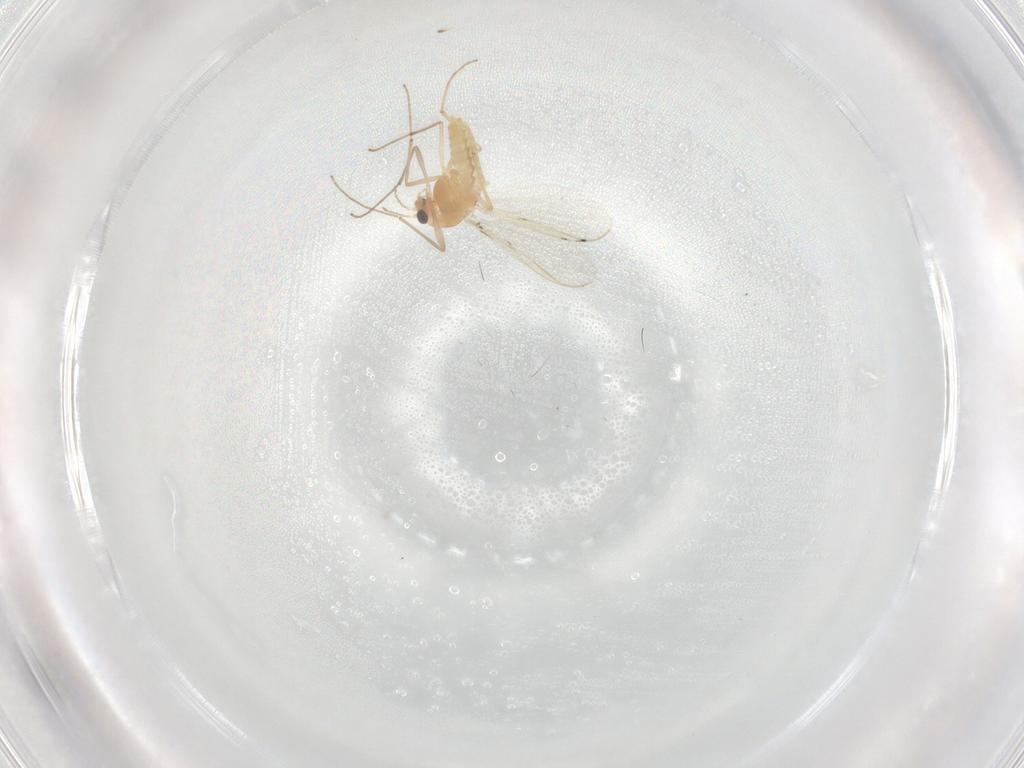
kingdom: Animalia
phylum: Arthropoda
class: Insecta
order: Diptera
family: Chironomidae
